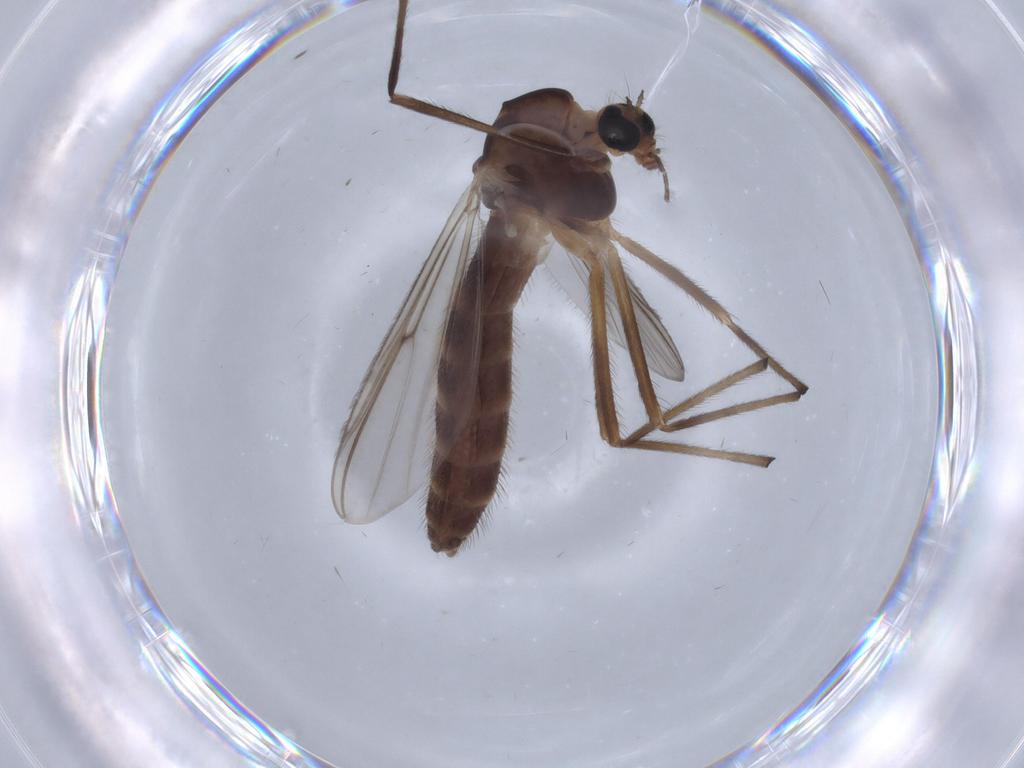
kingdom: Animalia
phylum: Arthropoda
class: Insecta
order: Diptera
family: Chironomidae
